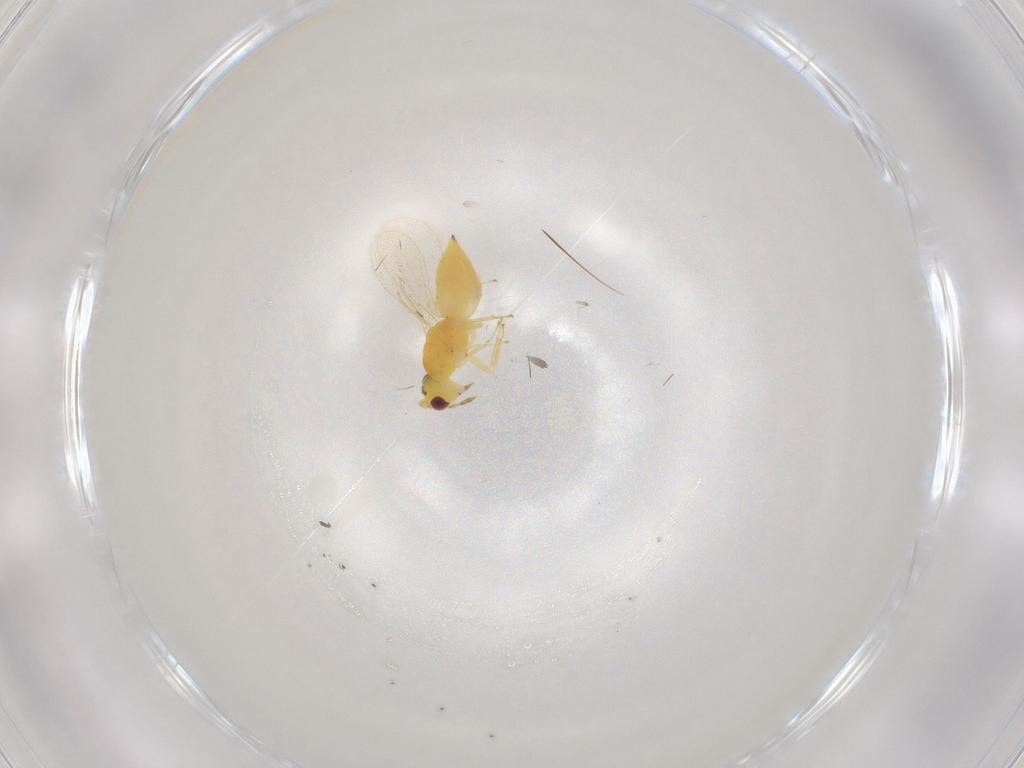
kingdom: Animalia
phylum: Arthropoda
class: Insecta
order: Hymenoptera
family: Eulophidae
